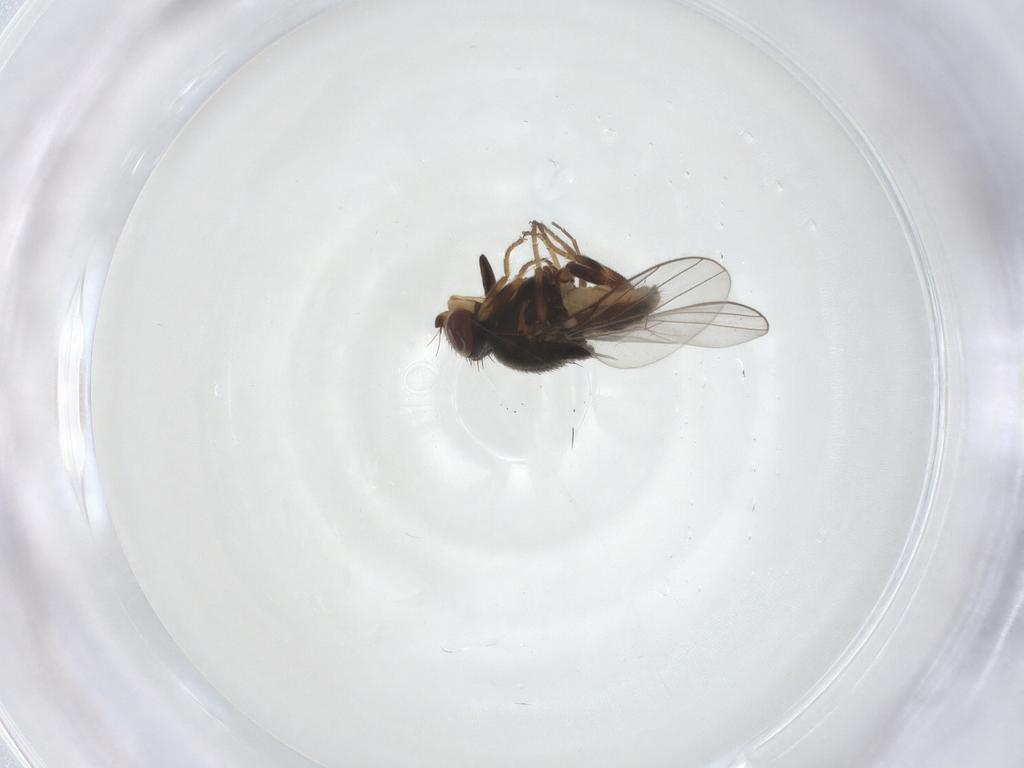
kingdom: Animalia
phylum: Arthropoda
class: Insecta
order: Diptera
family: Chloropidae
